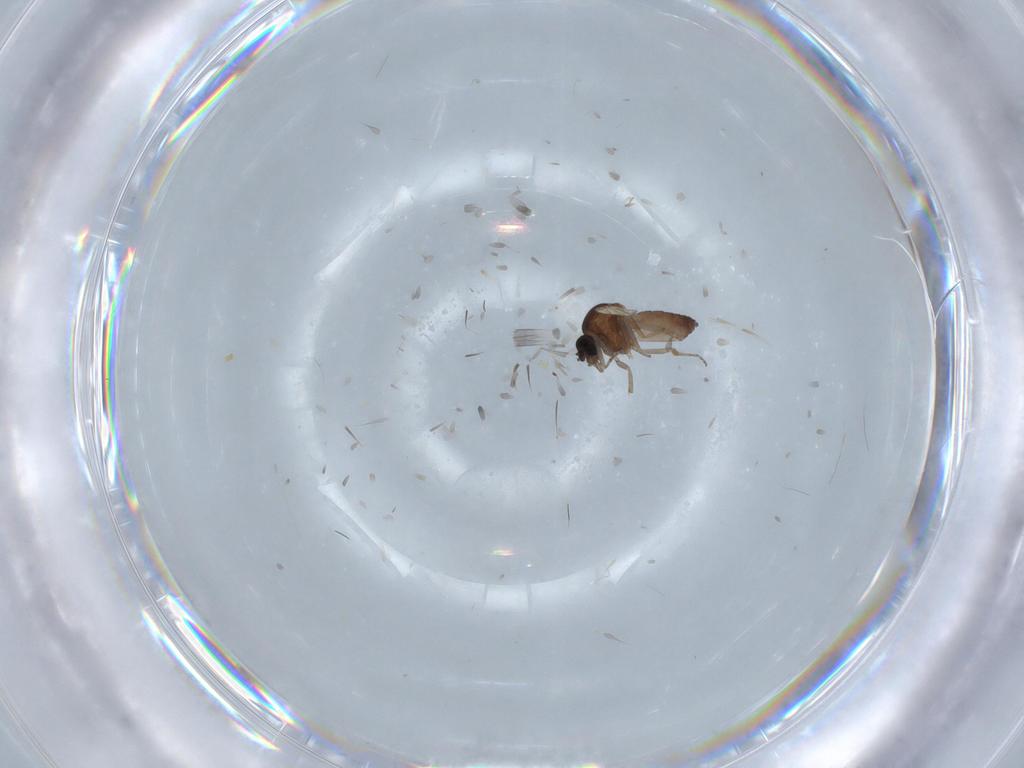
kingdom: Animalia
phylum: Arthropoda
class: Insecta
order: Diptera
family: Ceratopogonidae
